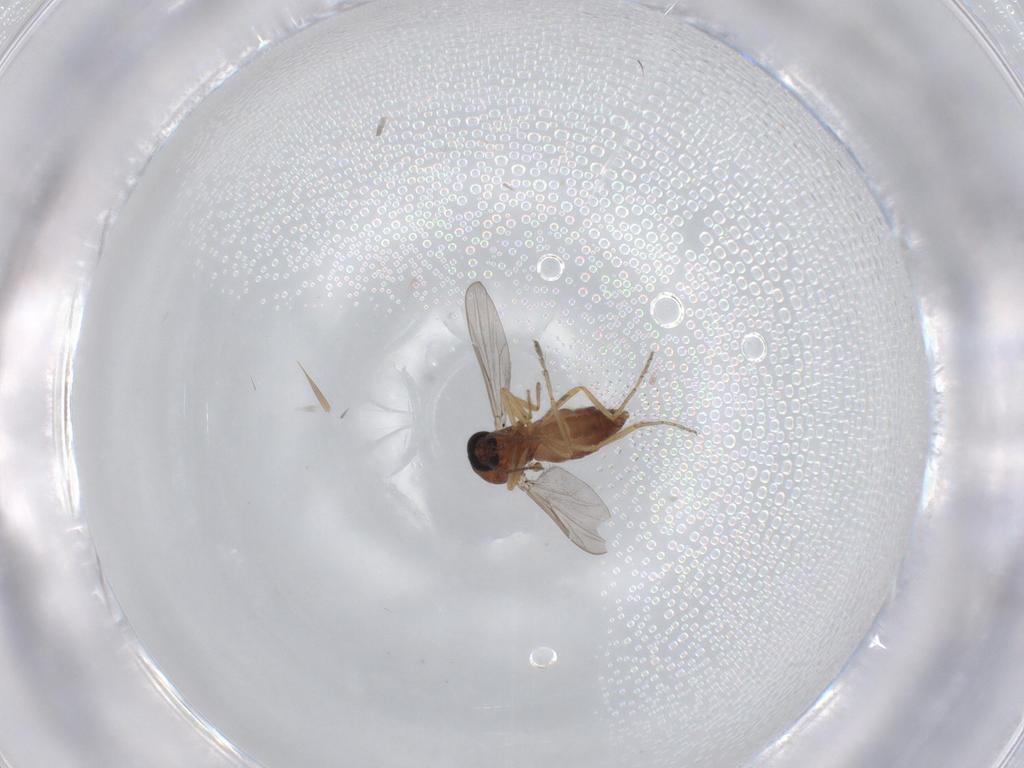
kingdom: Animalia
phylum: Arthropoda
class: Insecta
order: Diptera
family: Ceratopogonidae
